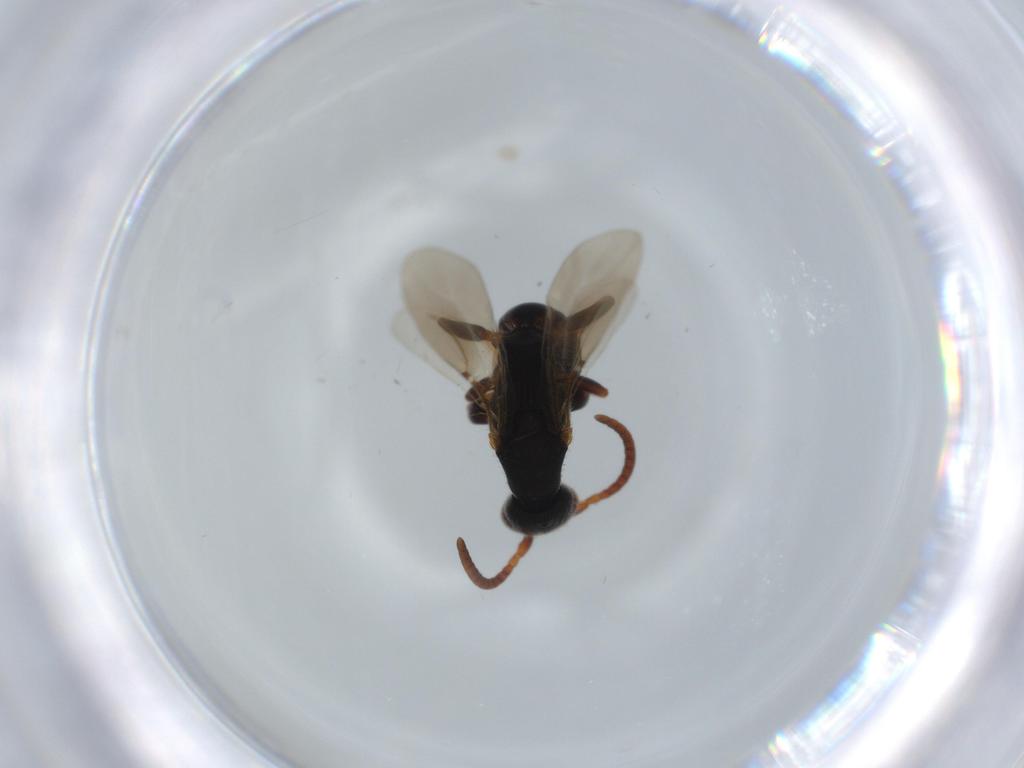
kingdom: Animalia
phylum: Arthropoda
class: Insecta
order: Hymenoptera
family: Bethylidae
